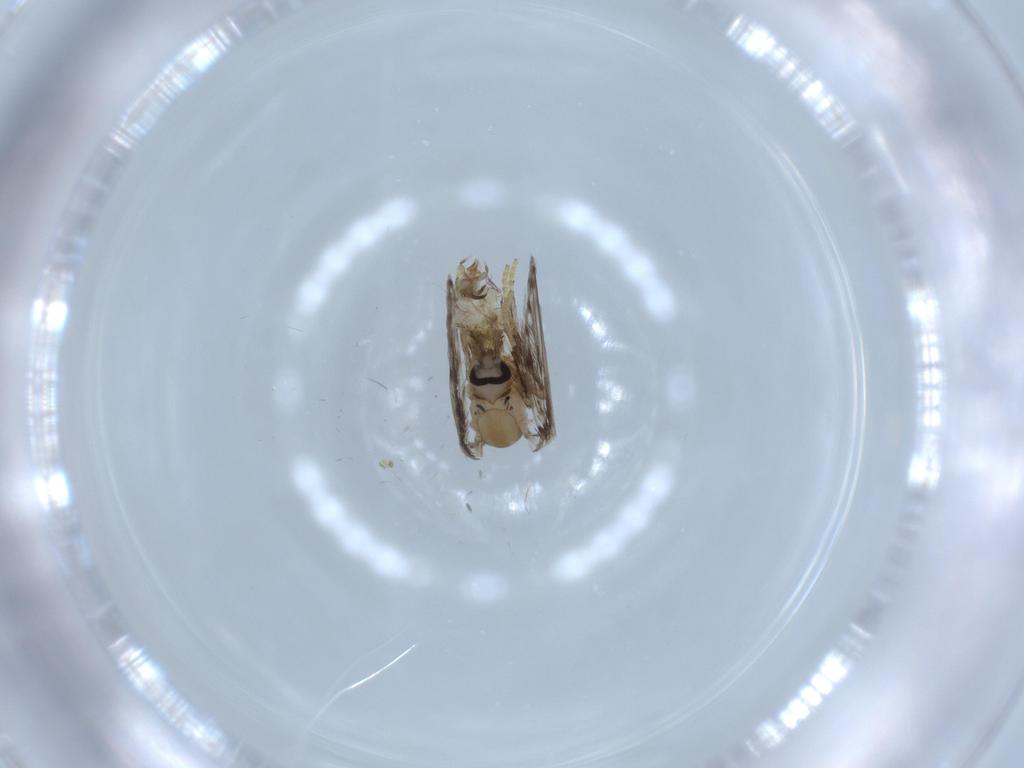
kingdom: Animalia
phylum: Arthropoda
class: Insecta
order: Diptera
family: Psychodidae
